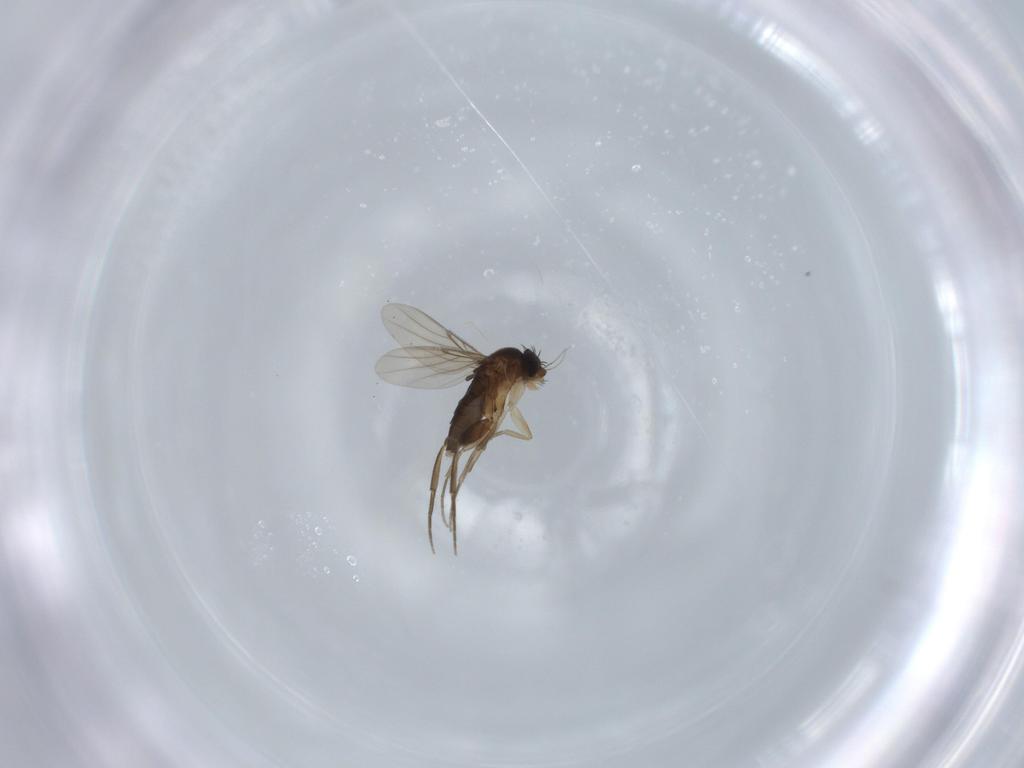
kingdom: Animalia
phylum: Arthropoda
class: Insecta
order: Diptera
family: Phoridae
